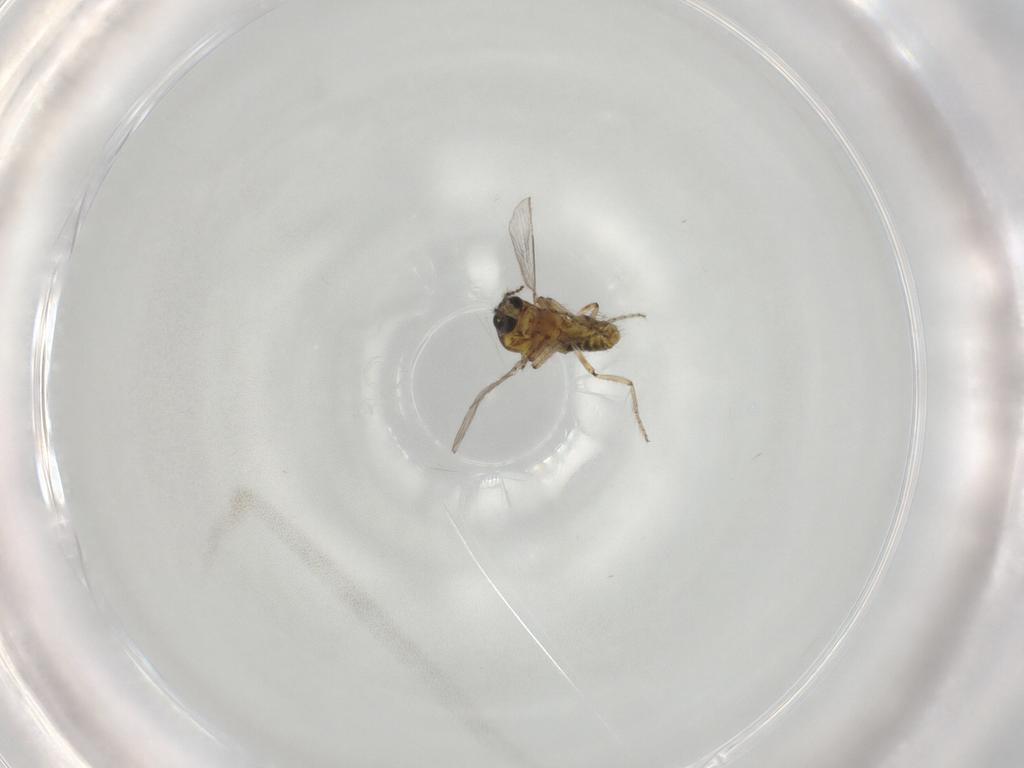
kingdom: Animalia
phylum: Arthropoda
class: Insecta
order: Diptera
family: Ceratopogonidae
